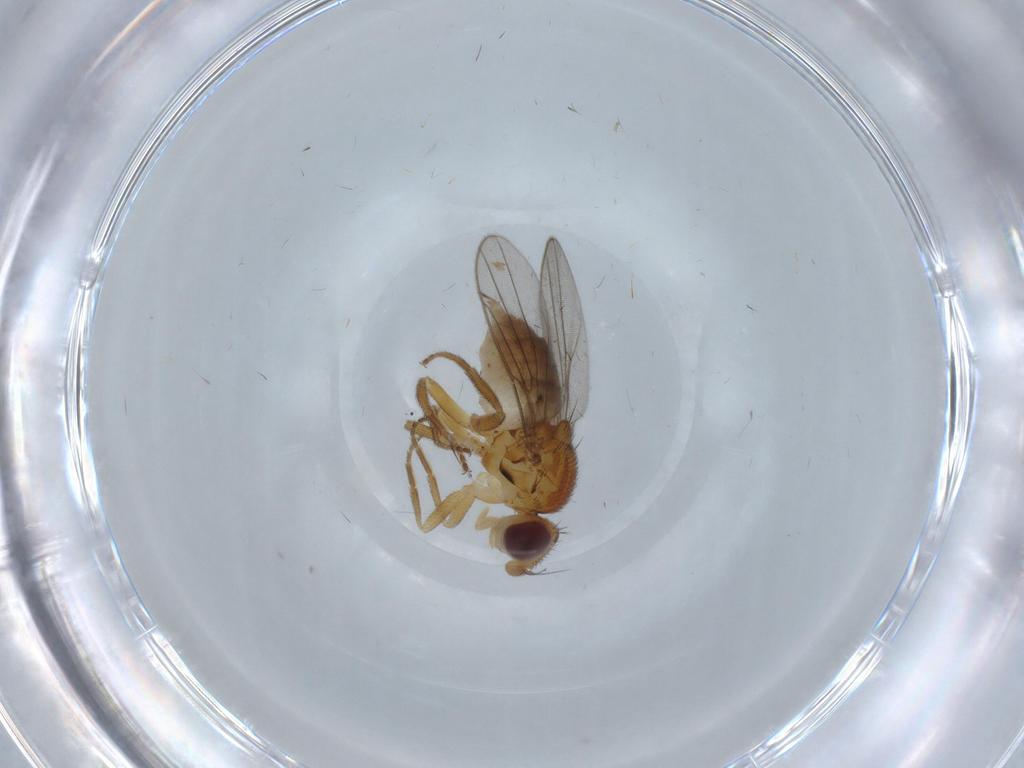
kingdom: Animalia
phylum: Arthropoda
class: Insecta
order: Diptera
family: Chloropidae
